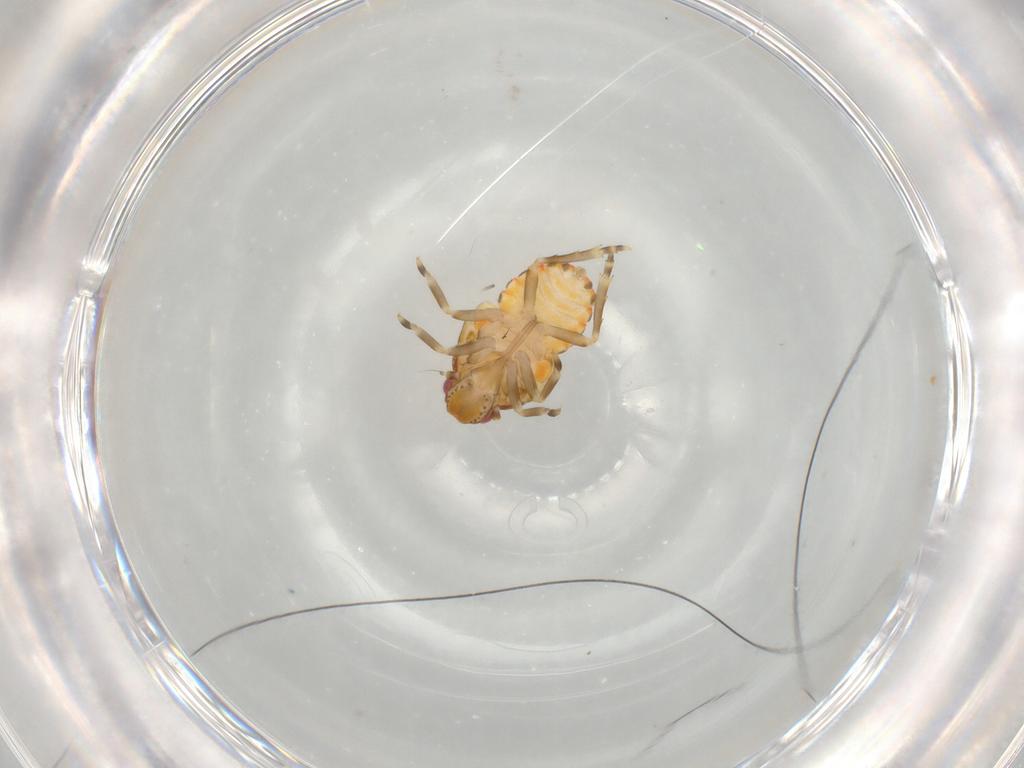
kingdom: Animalia
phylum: Arthropoda
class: Insecta
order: Hemiptera
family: Flatidae
